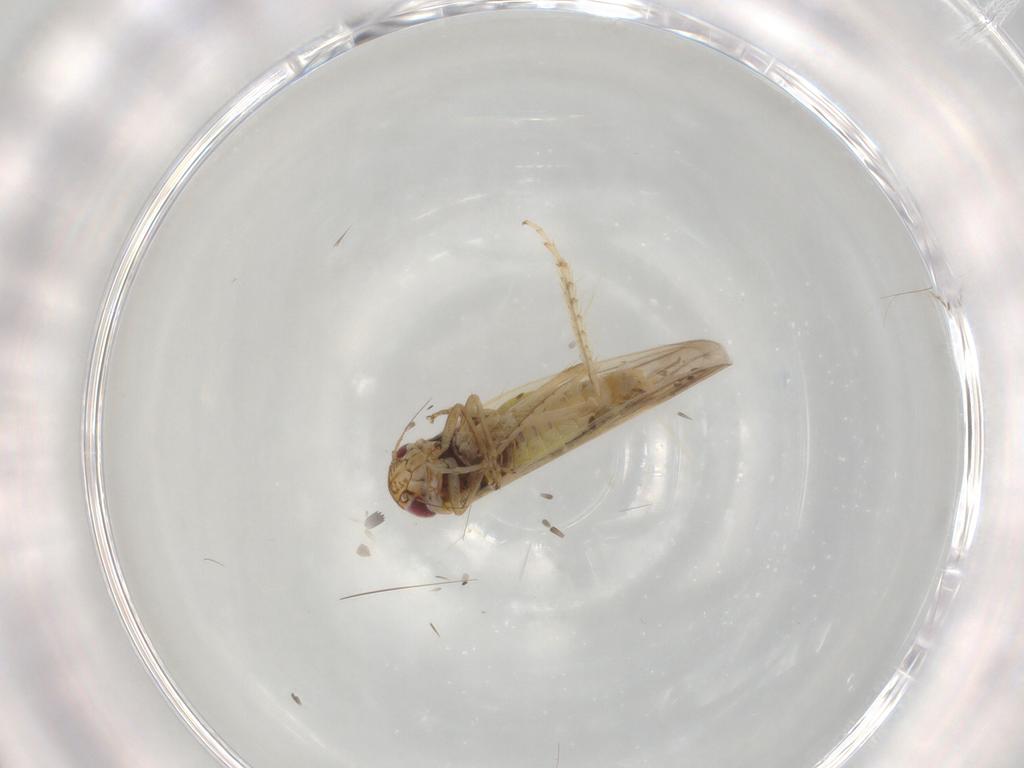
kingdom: Animalia
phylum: Arthropoda
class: Insecta
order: Hemiptera
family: Cicadellidae
